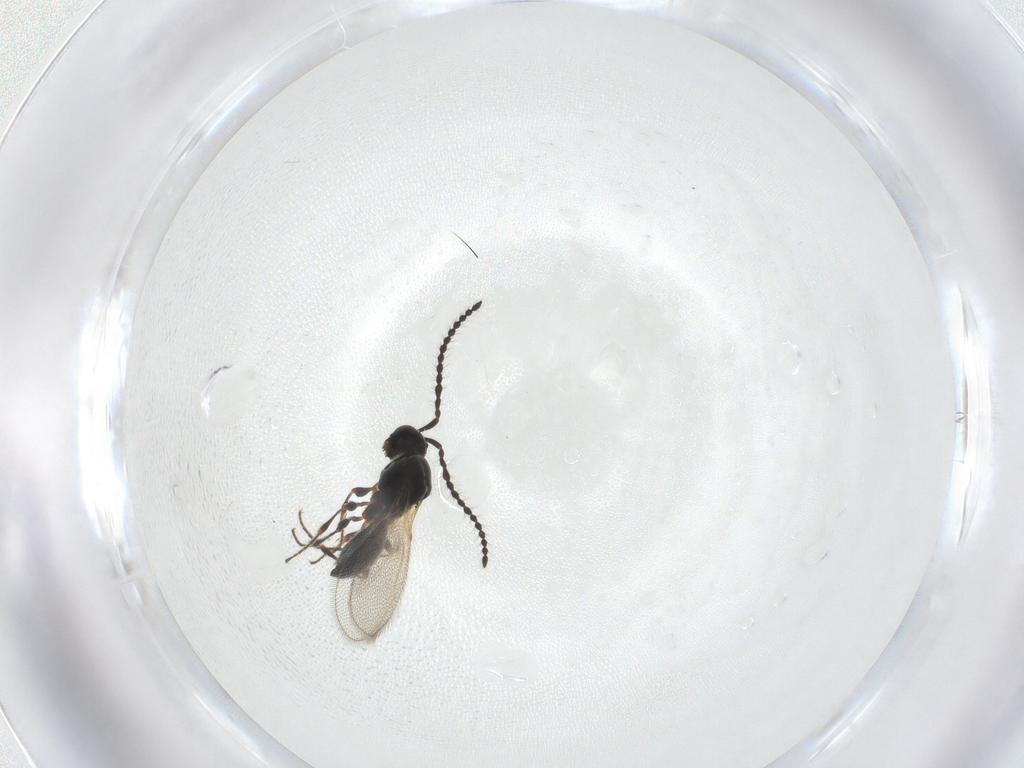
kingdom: Animalia
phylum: Arthropoda
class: Insecta
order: Hymenoptera
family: Diapriidae
